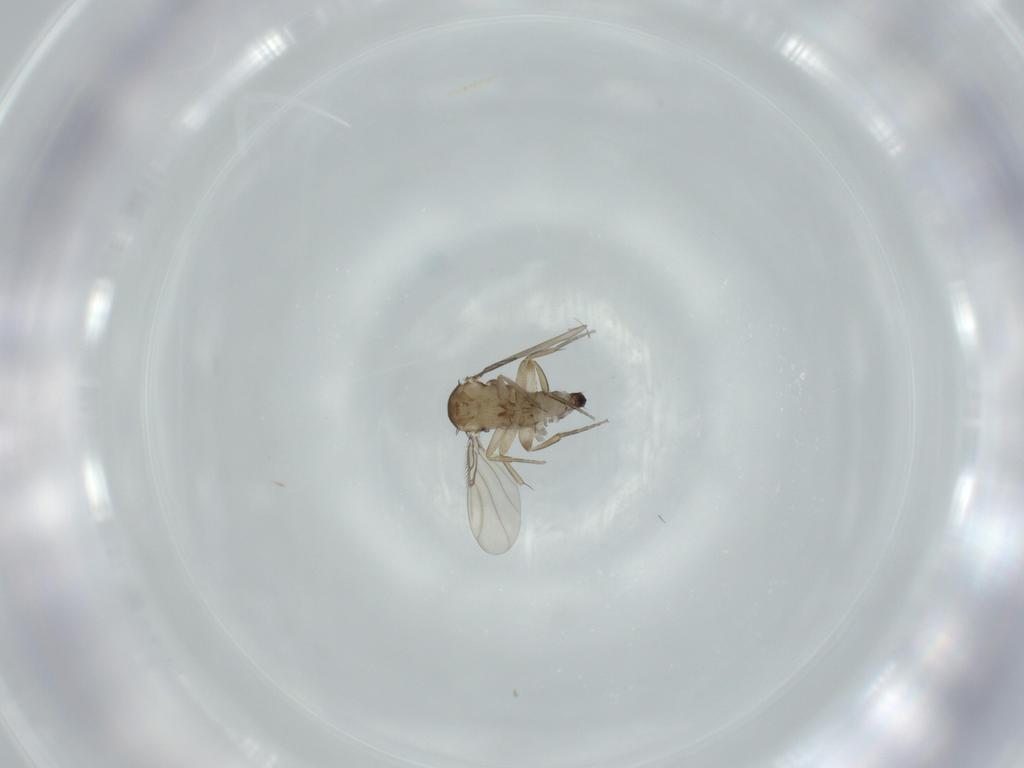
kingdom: Animalia
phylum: Arthropoda
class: Insecta
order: Diptera
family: Phoridae
